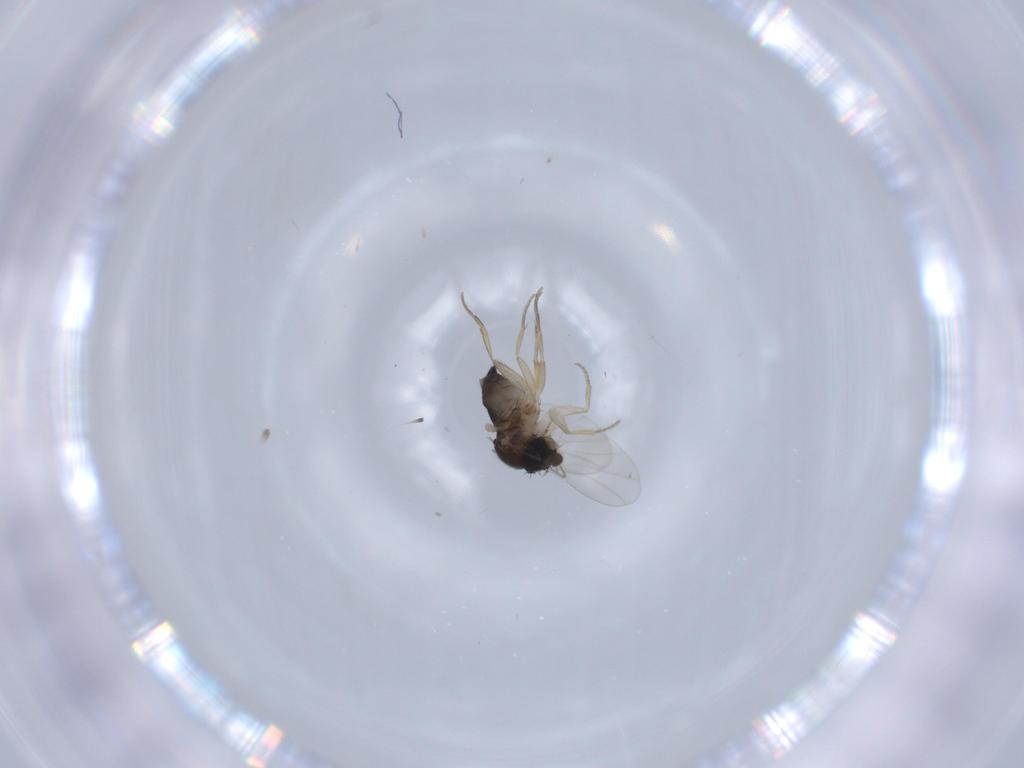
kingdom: Animalia
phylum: Arthropoda
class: Insecta
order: Diptera
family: Phoridae
